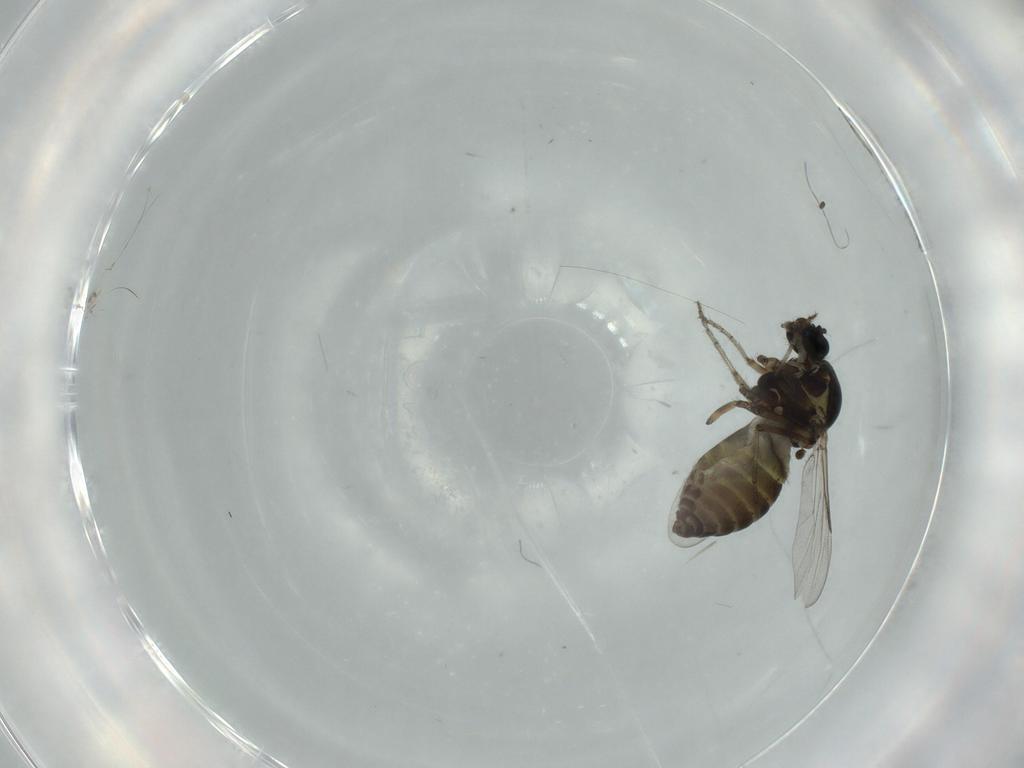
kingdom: Animalia
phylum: Arthropoda
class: Insecta
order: Diptera
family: Ceratopogonidae
